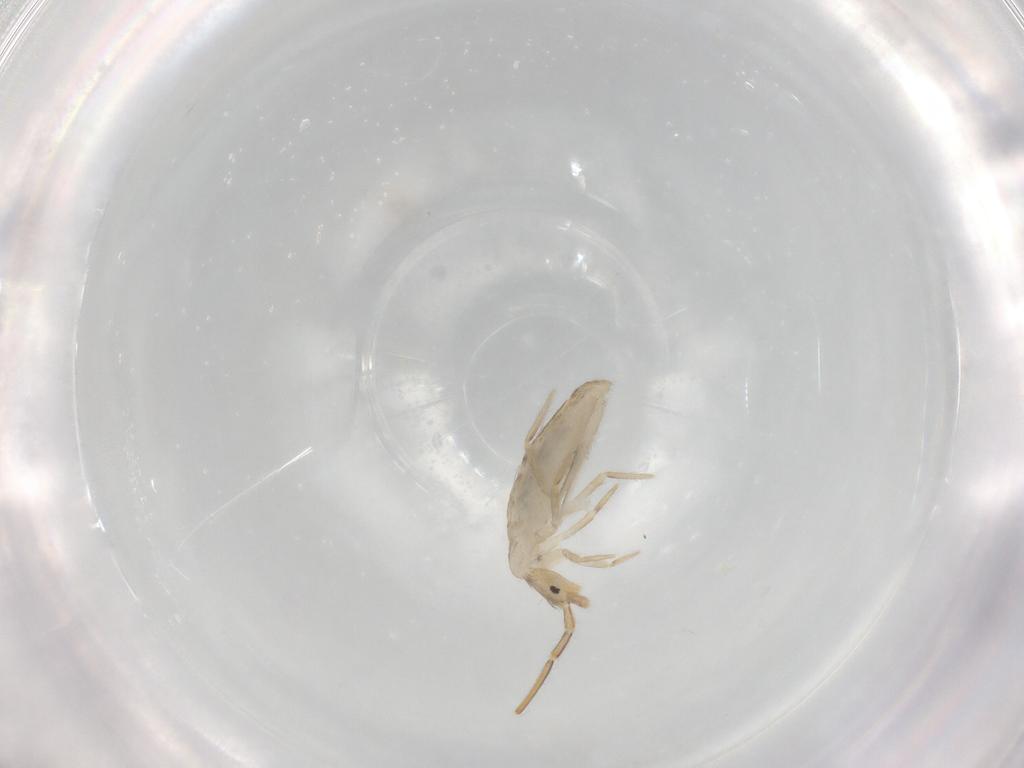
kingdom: Animalia
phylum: Arthropoda
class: Collembola
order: Entomobryomorpha
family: Entomobryidae
